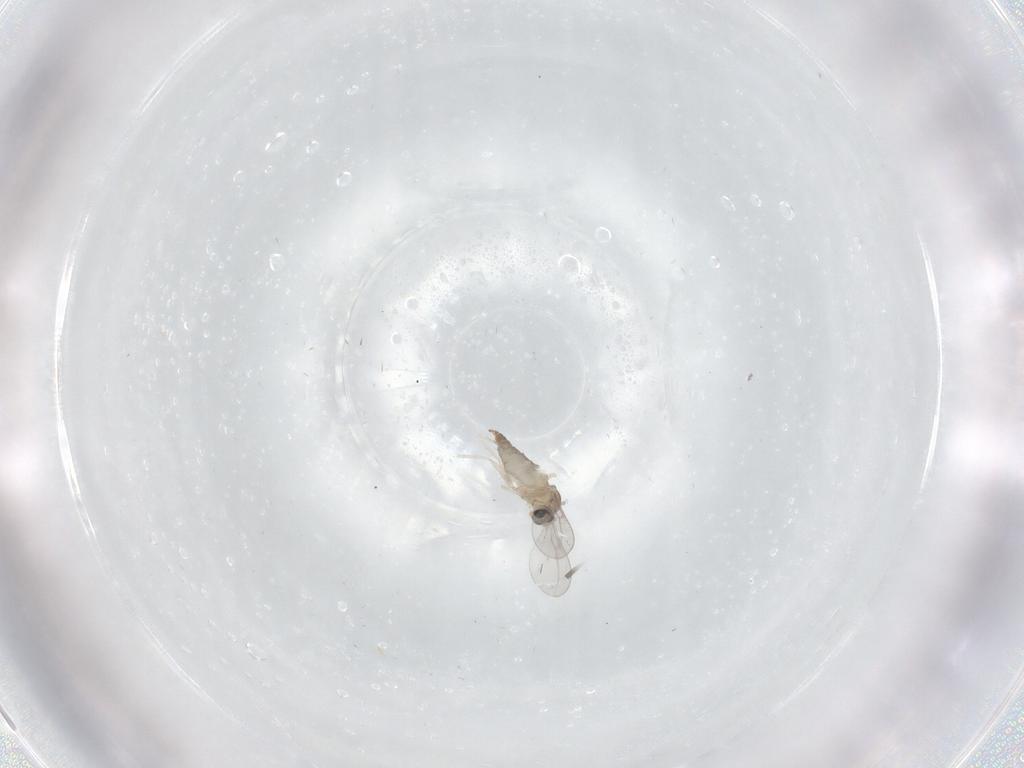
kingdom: Animalia
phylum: Arthropoda
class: Insecta
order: Diptera
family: Cecidomyiidae
